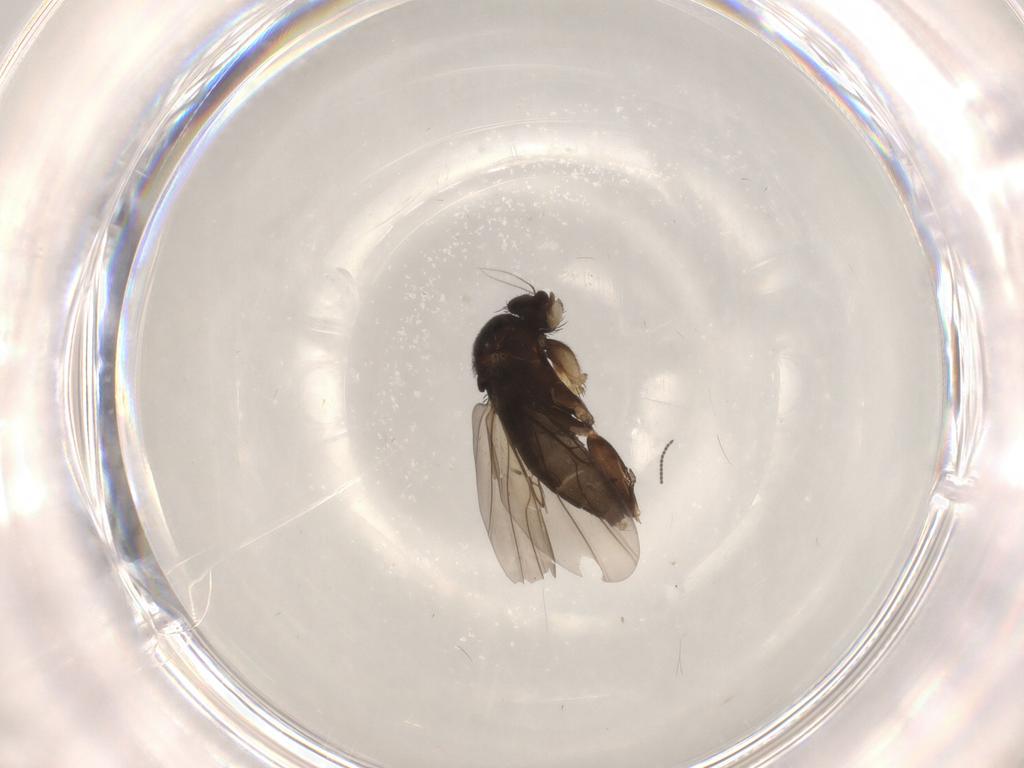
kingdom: Animalia
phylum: Arthropoda
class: Insecta
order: Diptera
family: Phoridae
